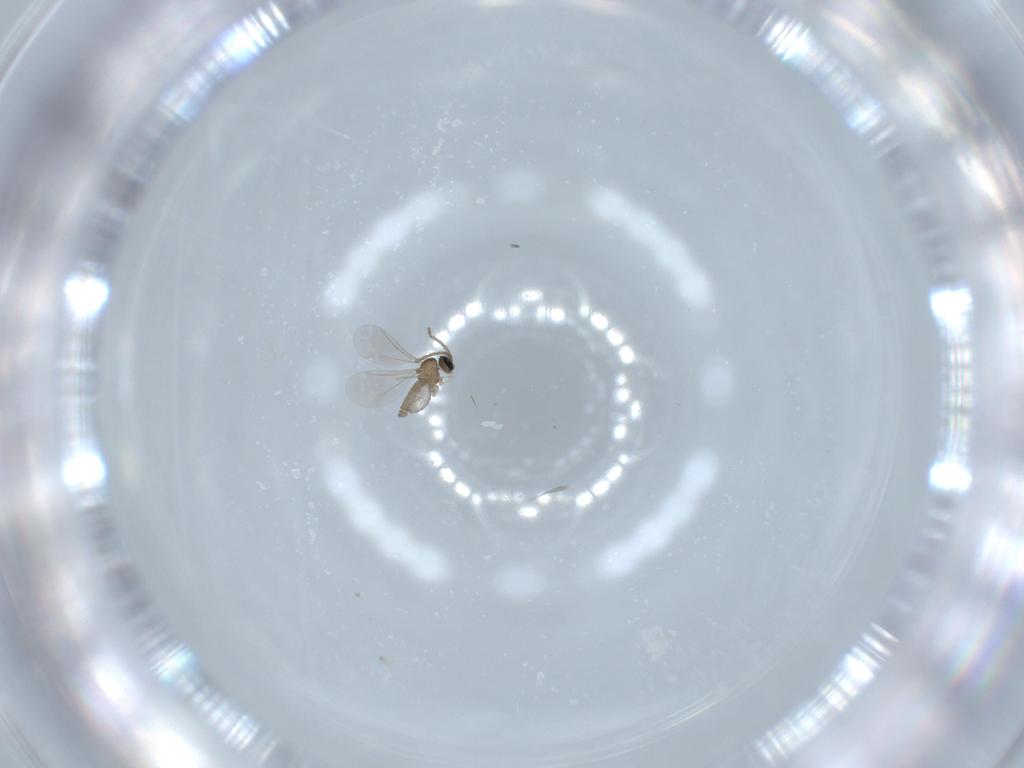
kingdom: Animalia
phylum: Arthropoda
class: Insecta
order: Diptera
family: Cecidomyiidae
